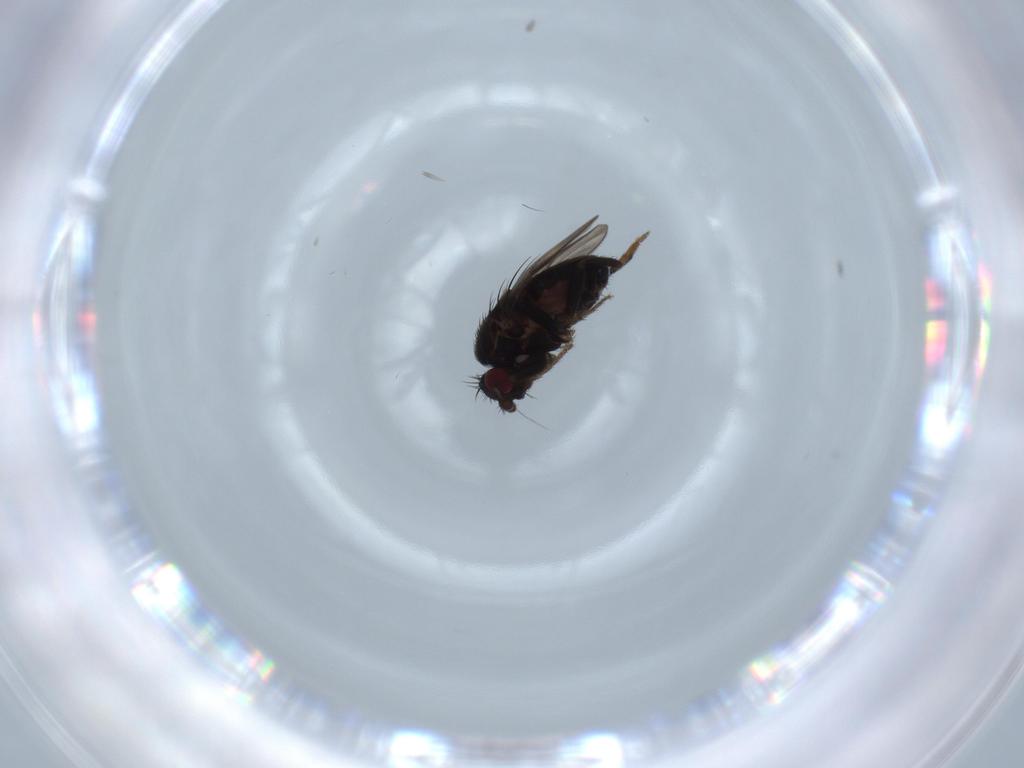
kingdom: Animalia
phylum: Arthropoda
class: Insecta
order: Diptera
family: Sphaeroceridae
